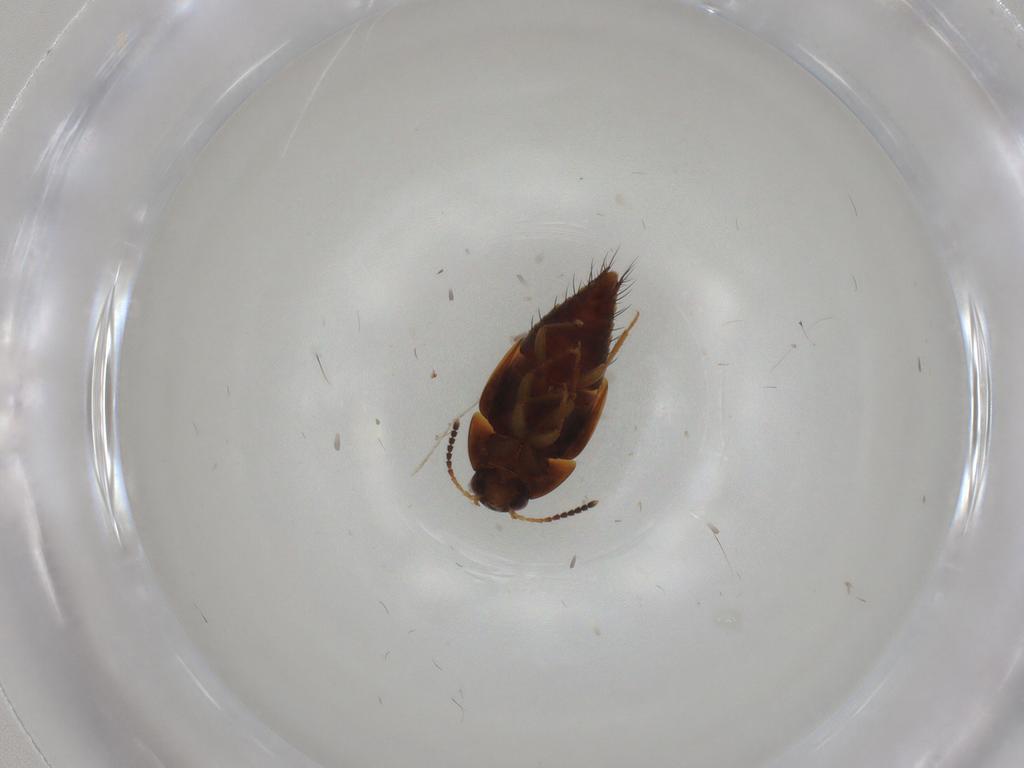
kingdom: Animalia
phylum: Arthropoda
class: Insecta
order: Coleoptera
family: Staphylinidae
